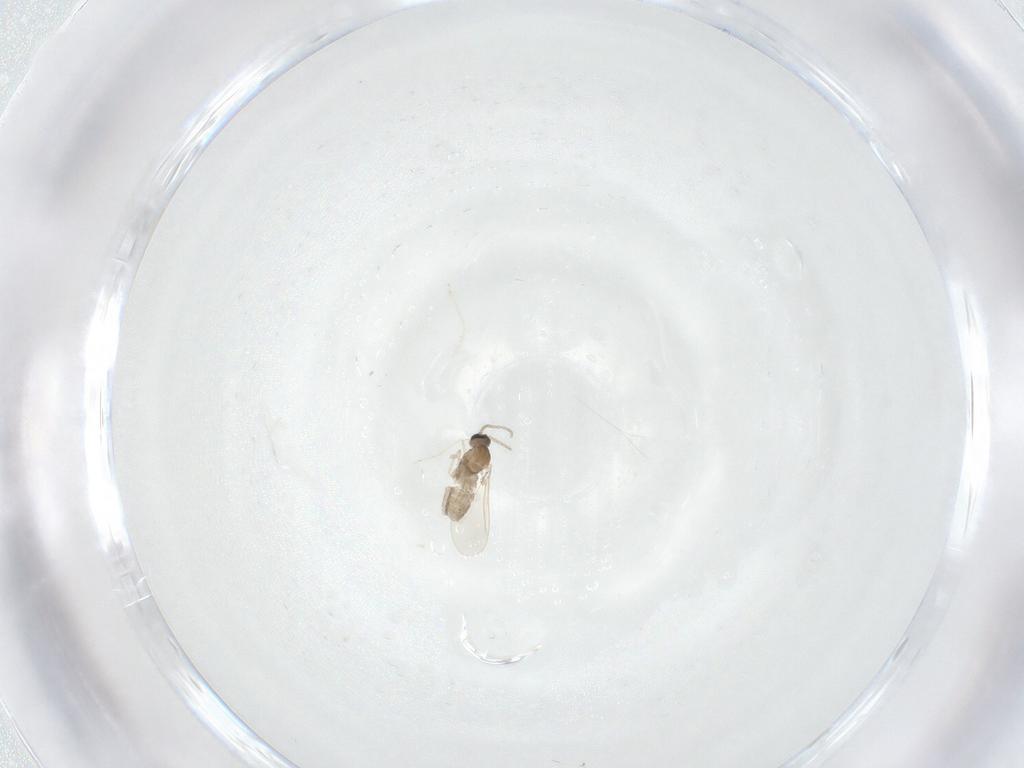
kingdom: Animalia
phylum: Arthropoda
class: Insecta
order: Diptera
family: Cecidomyiidae
